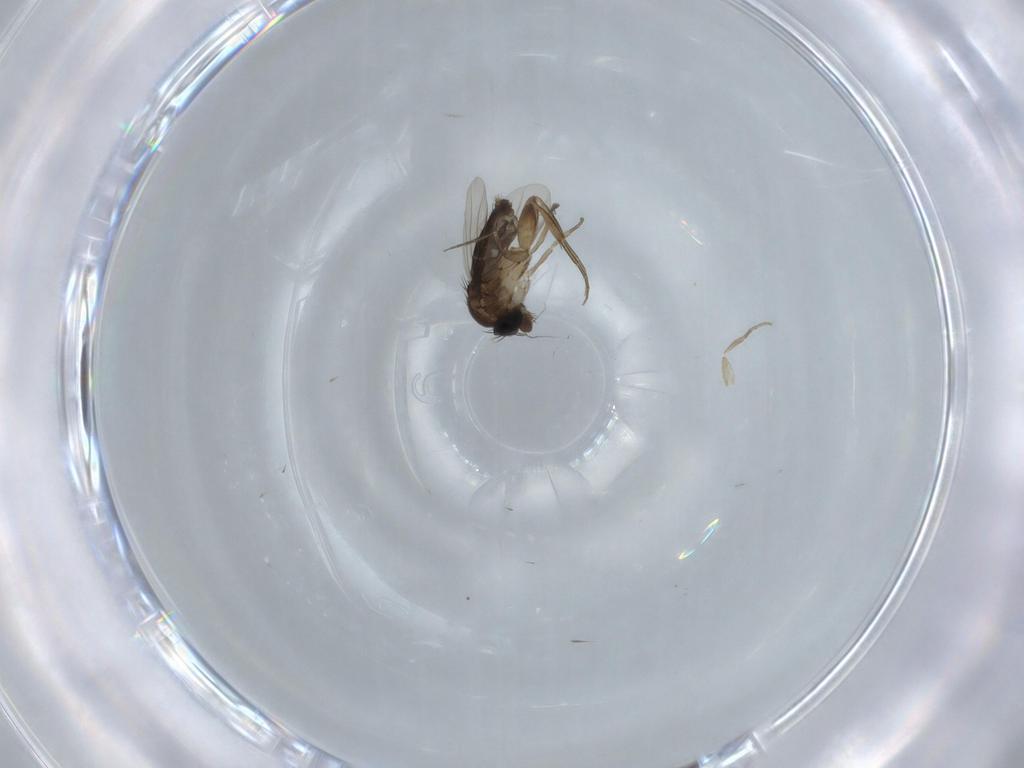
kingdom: Animalia
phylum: Arthropoda
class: Insecta
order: Diptera
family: Phoridae
